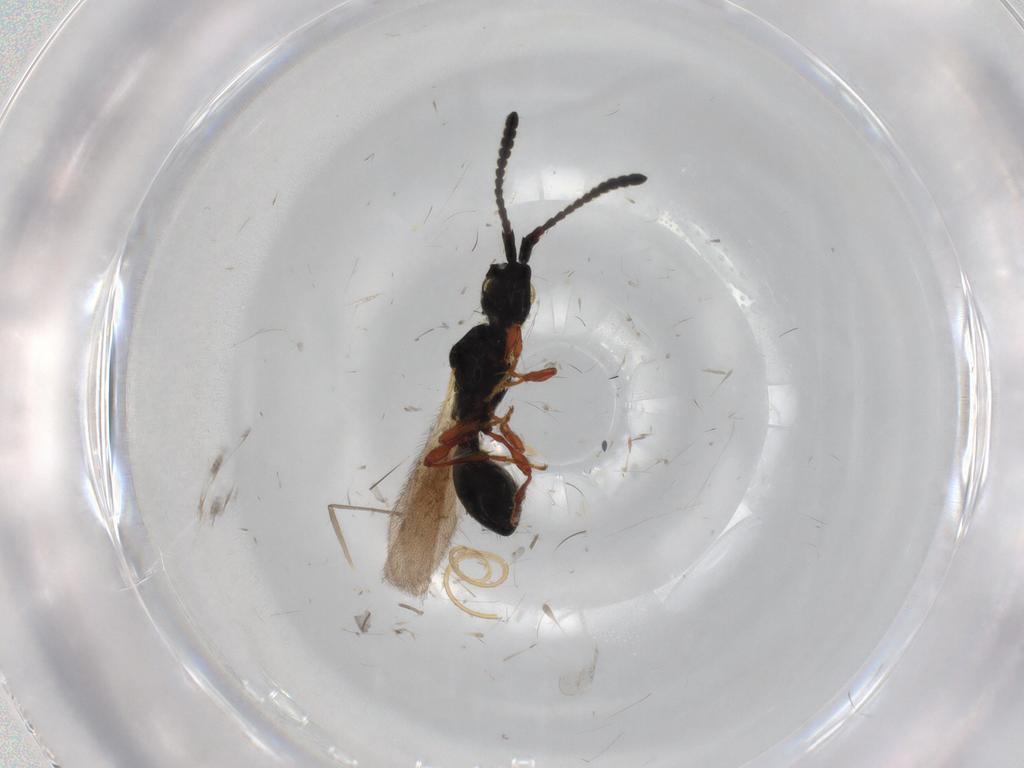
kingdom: Animalia
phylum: Arthropoda
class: Insecta
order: Hymenoptera
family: Diapriidae
